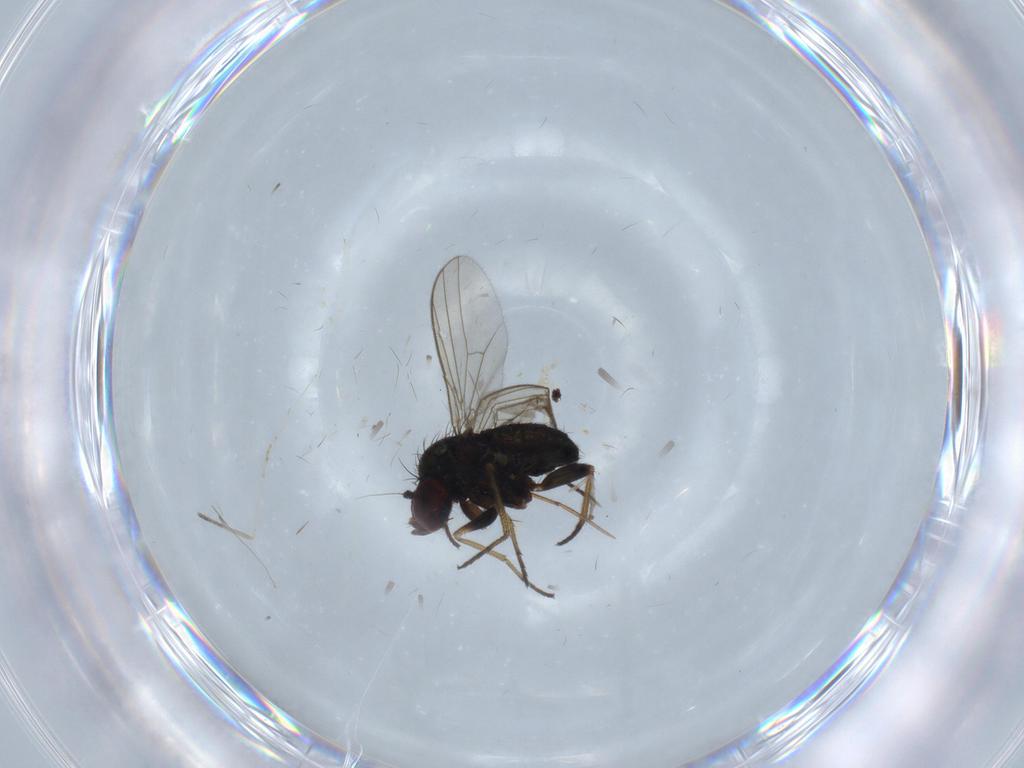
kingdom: Animalia
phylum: Arthropoda
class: Insecta
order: Diptera
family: Dolichopodidae
